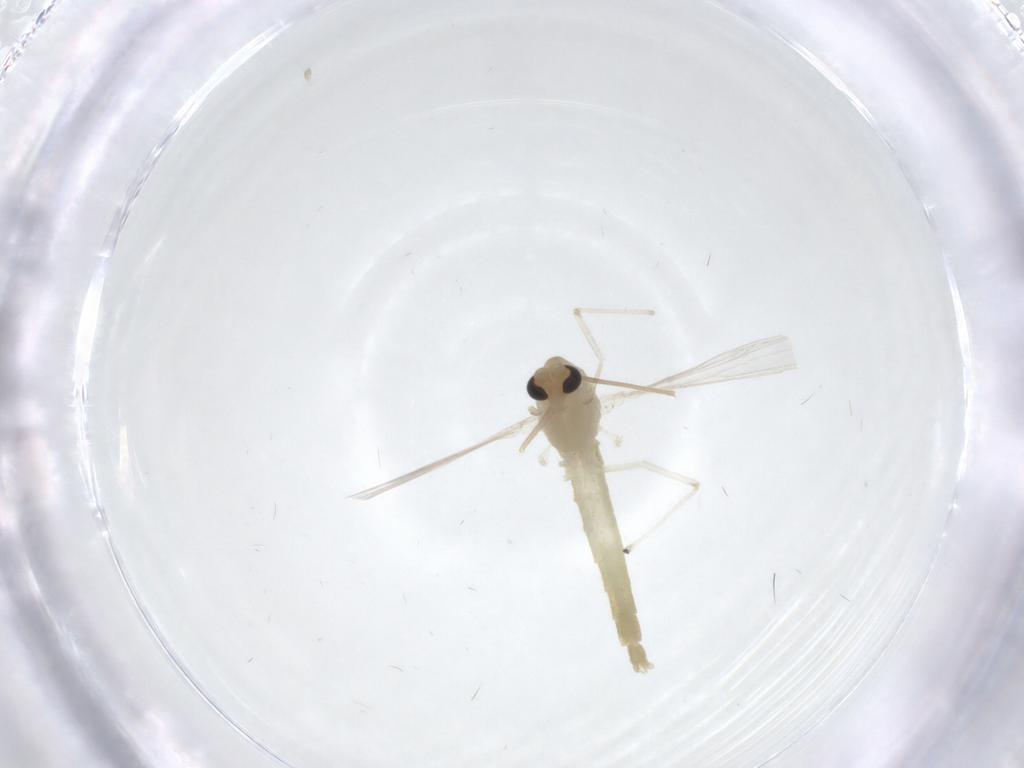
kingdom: Animalia
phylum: Arthropoda
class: Insecta
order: Diptera
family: Chironomidae
